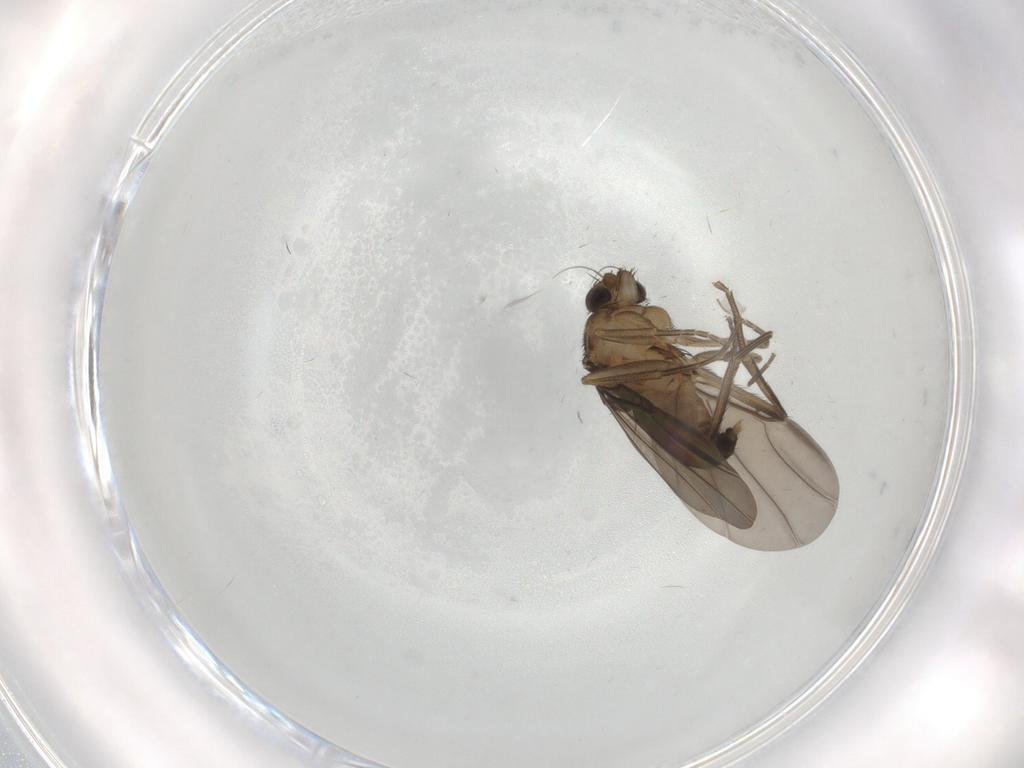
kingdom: Animalia
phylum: Arthropoda
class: Insecta
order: Diptera
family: Phoridae
